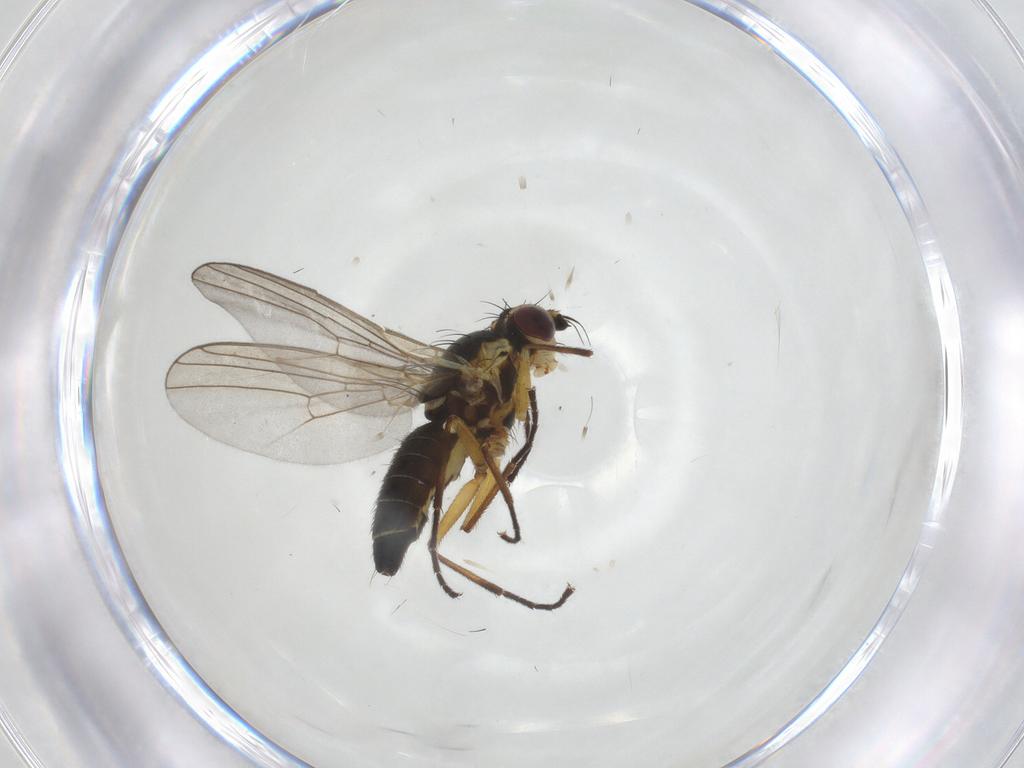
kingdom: Animalia
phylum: Arthropoda
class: Insecta
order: Diptera
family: Agromyzidae
